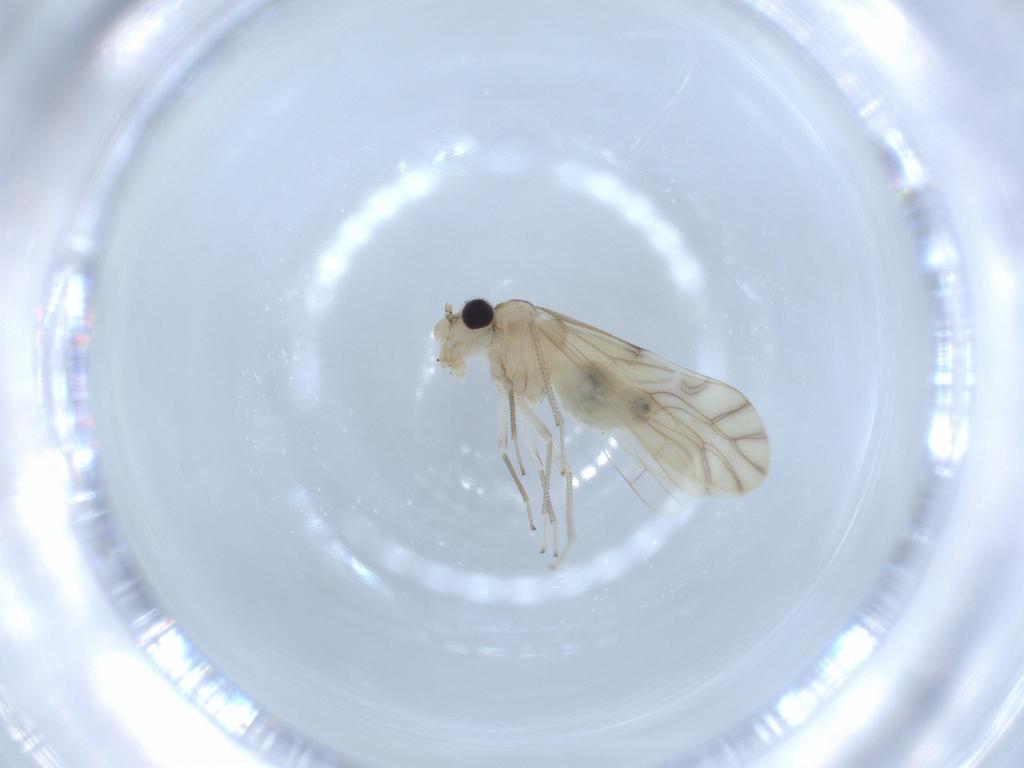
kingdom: Animalia
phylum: Arthropoda
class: Insecta
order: Psocodea
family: Caeciliusidae
